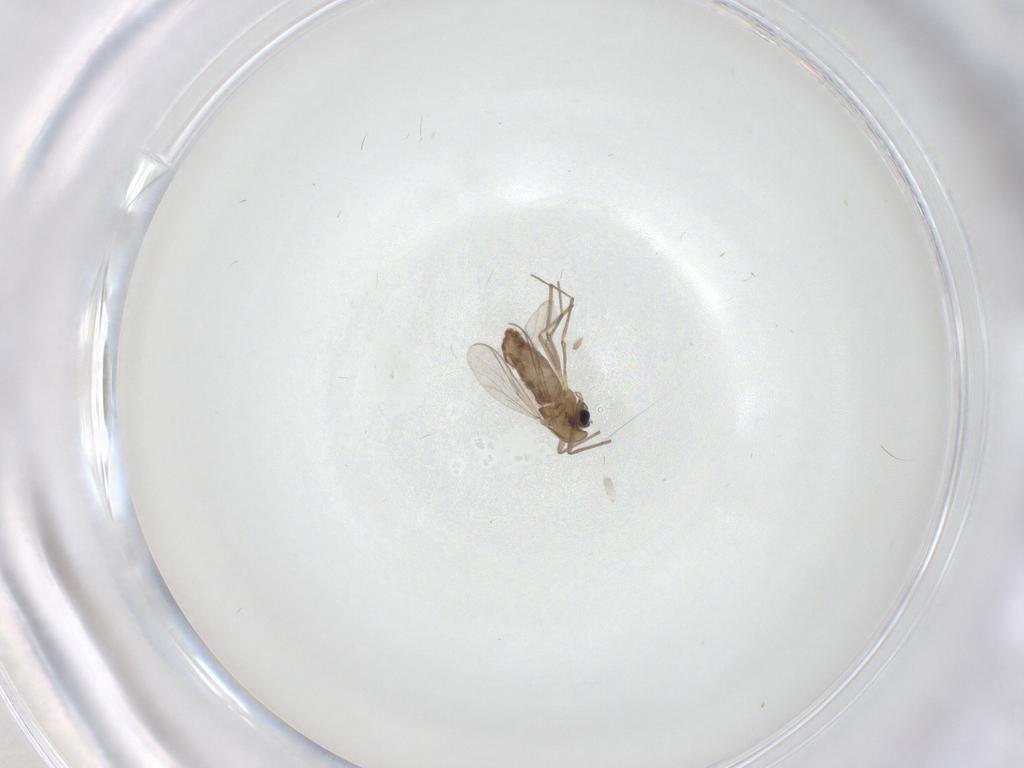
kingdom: Animalia
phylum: Arthropoda
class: Insecta
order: Diptera
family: Chironomidae
